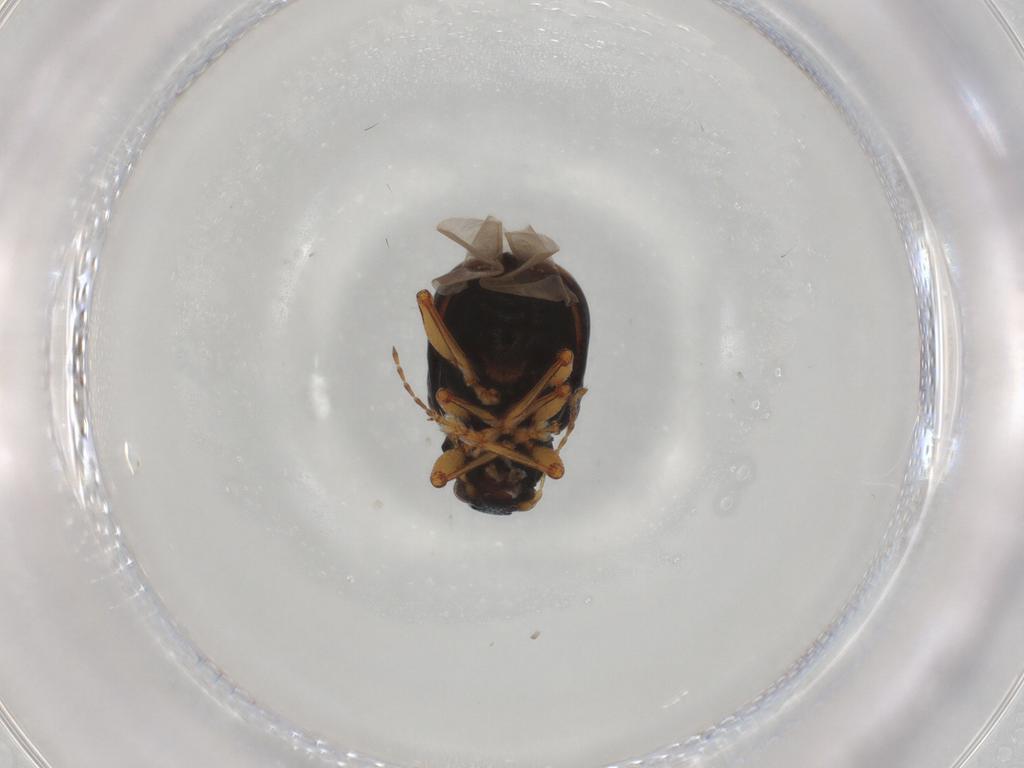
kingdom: Animalia
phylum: Arthropoda
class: Insecta
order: Coleoptera
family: Chrysomelidae
